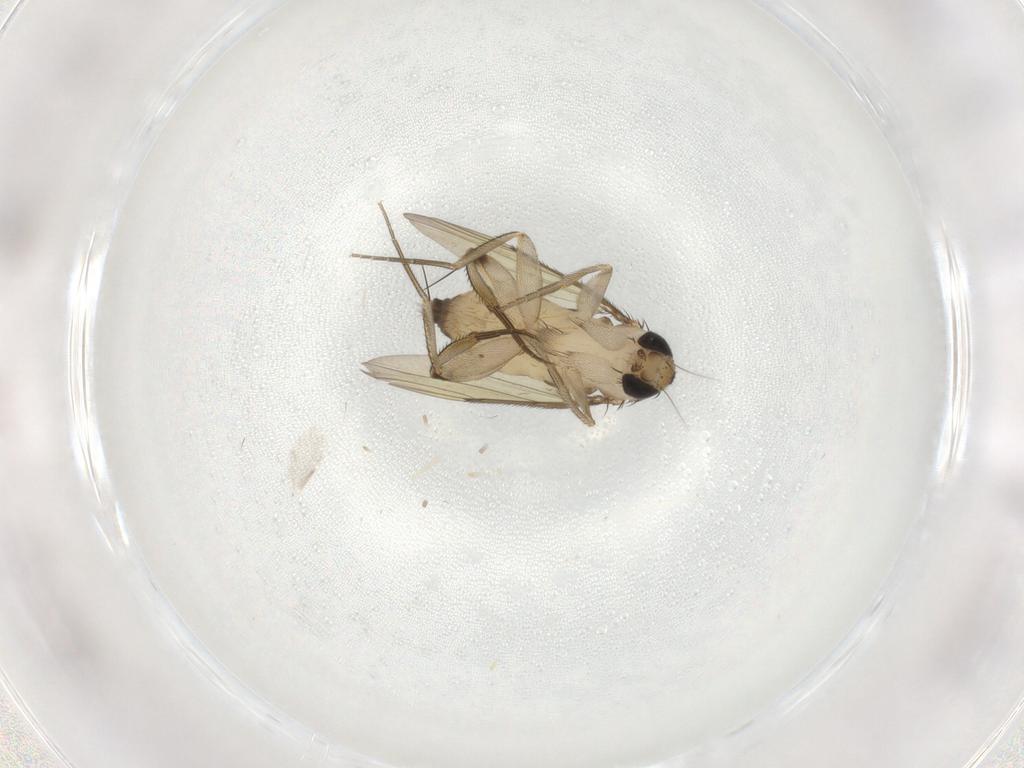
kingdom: Animalia
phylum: Arthropoda
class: Insecta
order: Diptera
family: Phoridae
